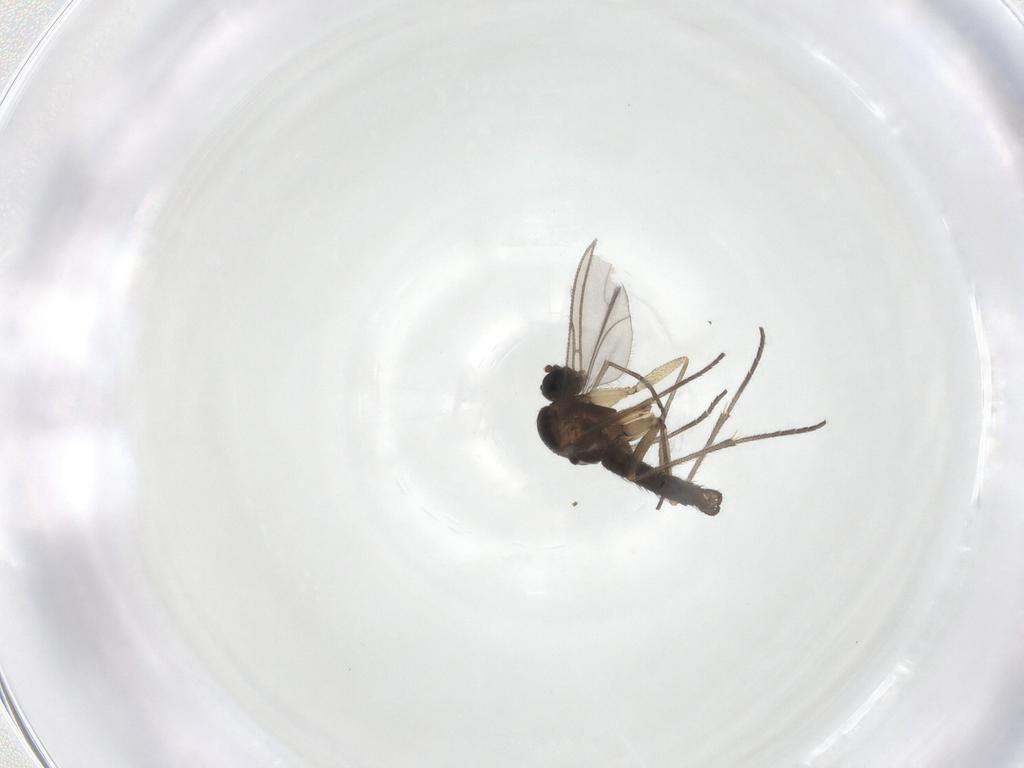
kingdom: Animalia
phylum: Arthropoda
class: Insecta
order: Diptera
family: Sciaridae
